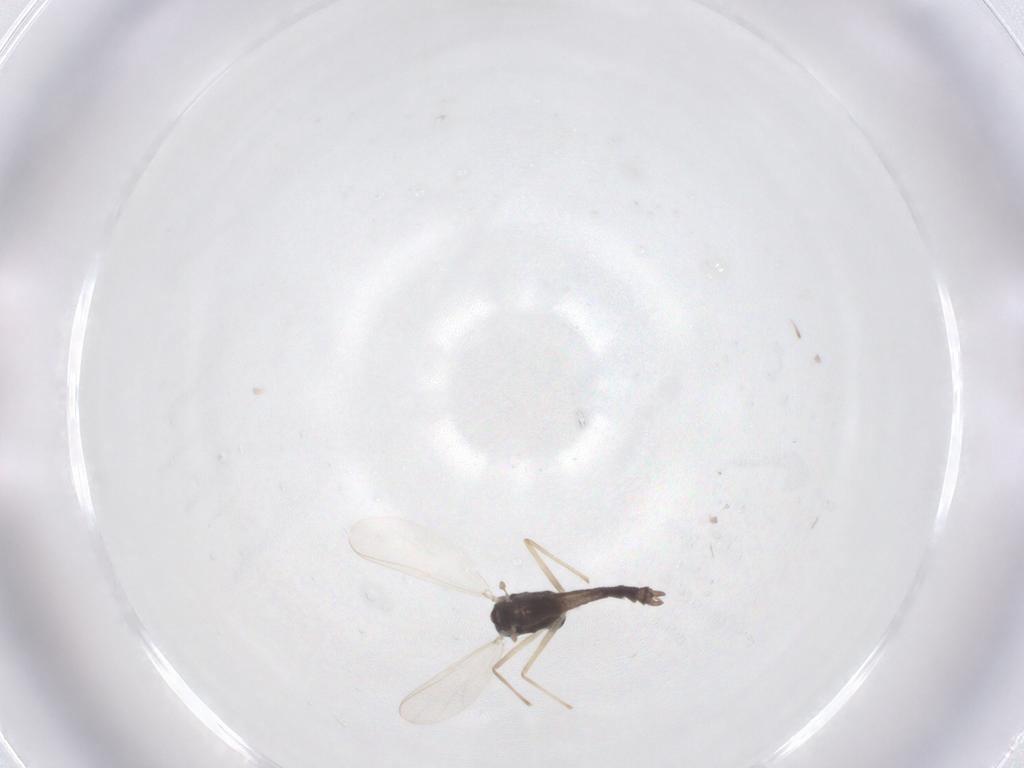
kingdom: Animalia
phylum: Arthropoda
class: Insecta
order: Diptera
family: Chironomidae
